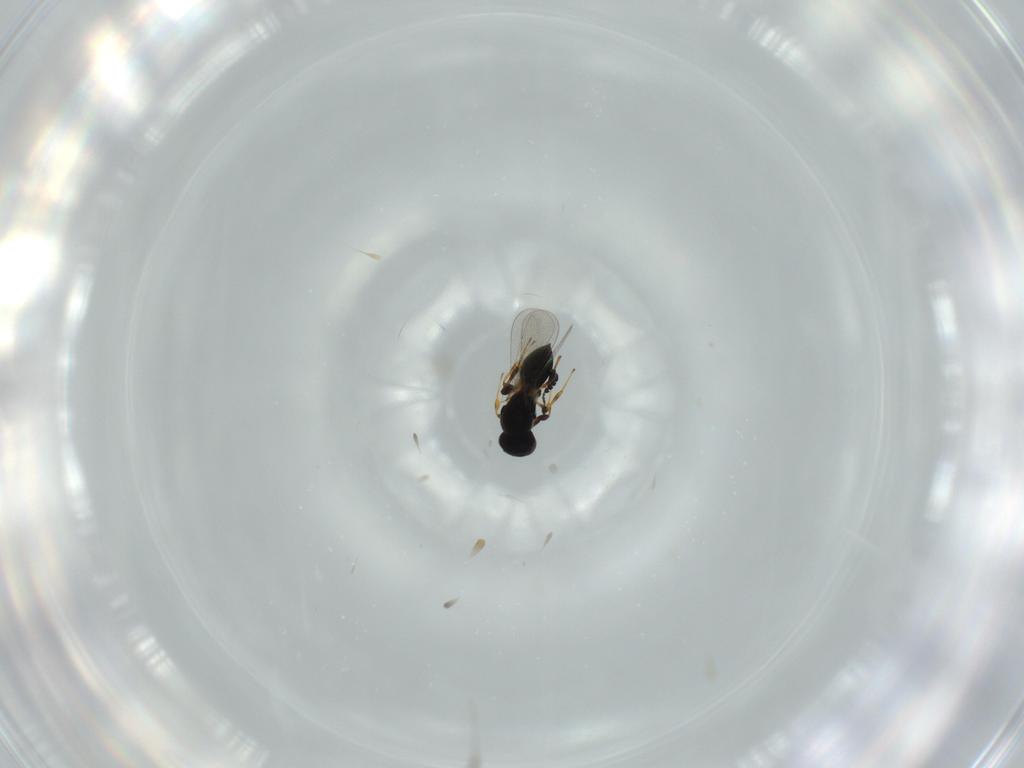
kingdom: Animalia
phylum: Arthropoda
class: Insecta
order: Hymenoptera
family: Platygastridae
